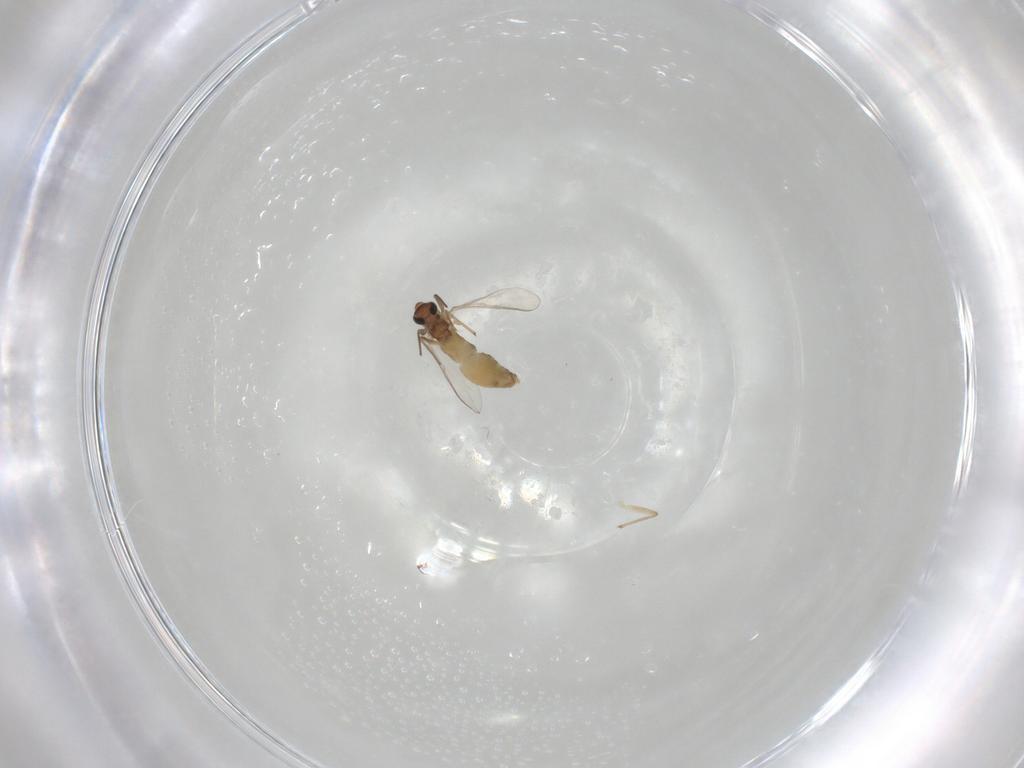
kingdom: Animalia
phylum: Arthropoda
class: Insecta
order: Diptera
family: Chironomidae
